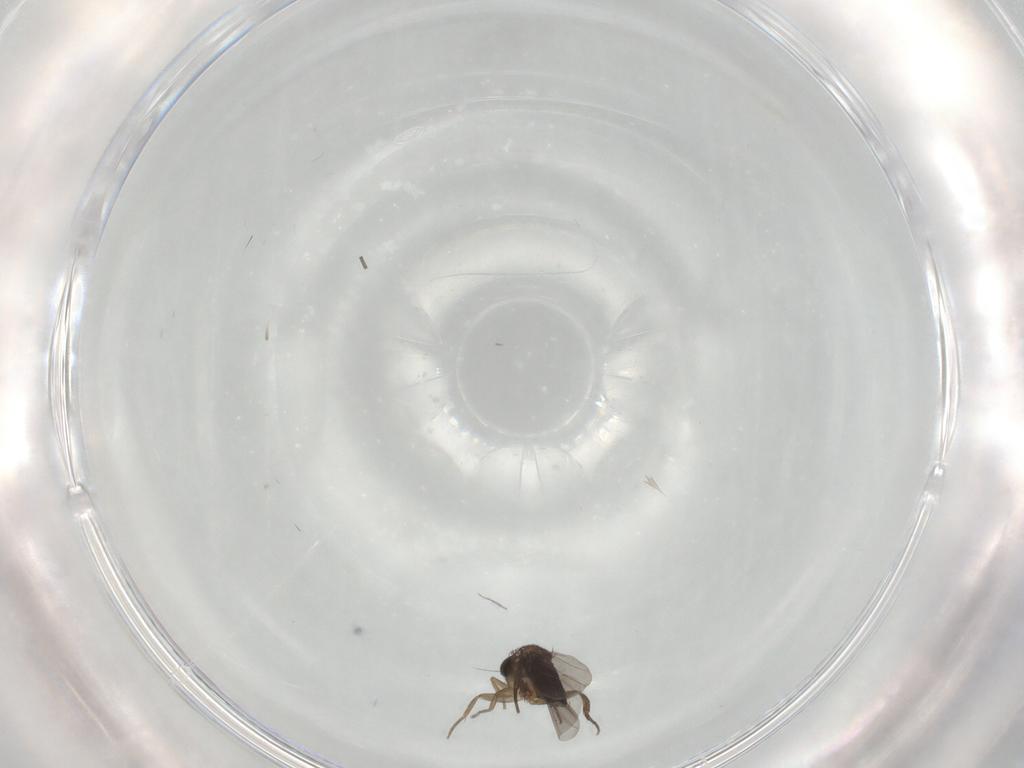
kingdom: Animalia
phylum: Arthropoda
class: Insecta
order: Diptera
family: Phoridae
